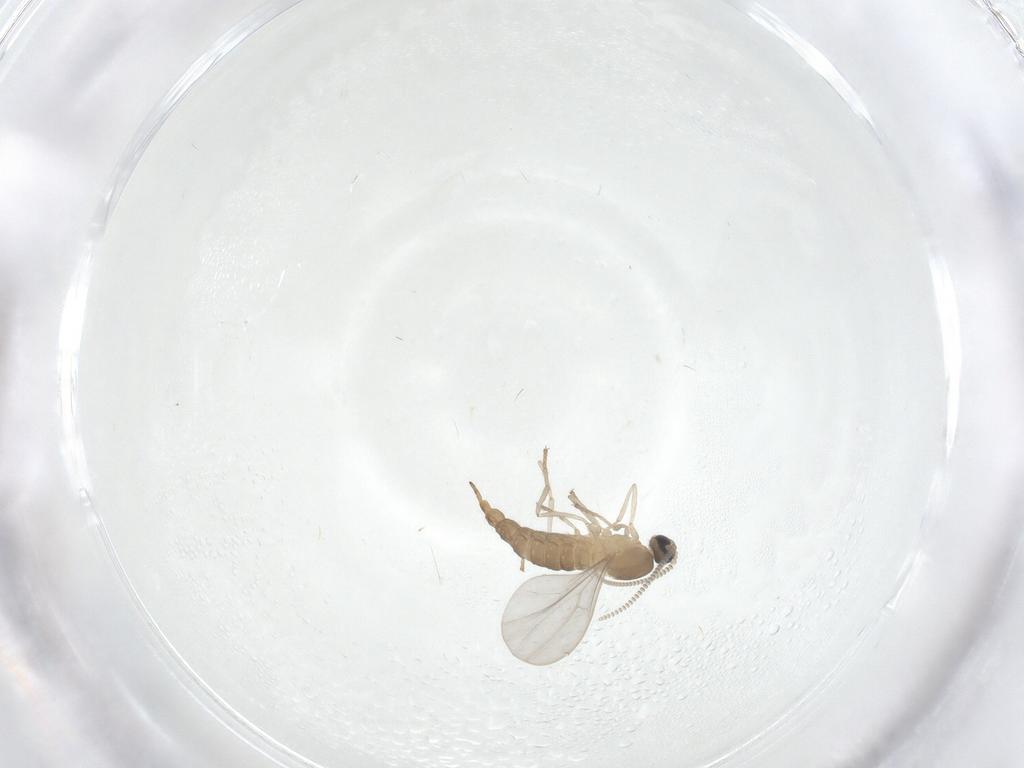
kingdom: Animalia
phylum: Arthropoda
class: Insecta
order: Diptera
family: Cecidomyiidae
